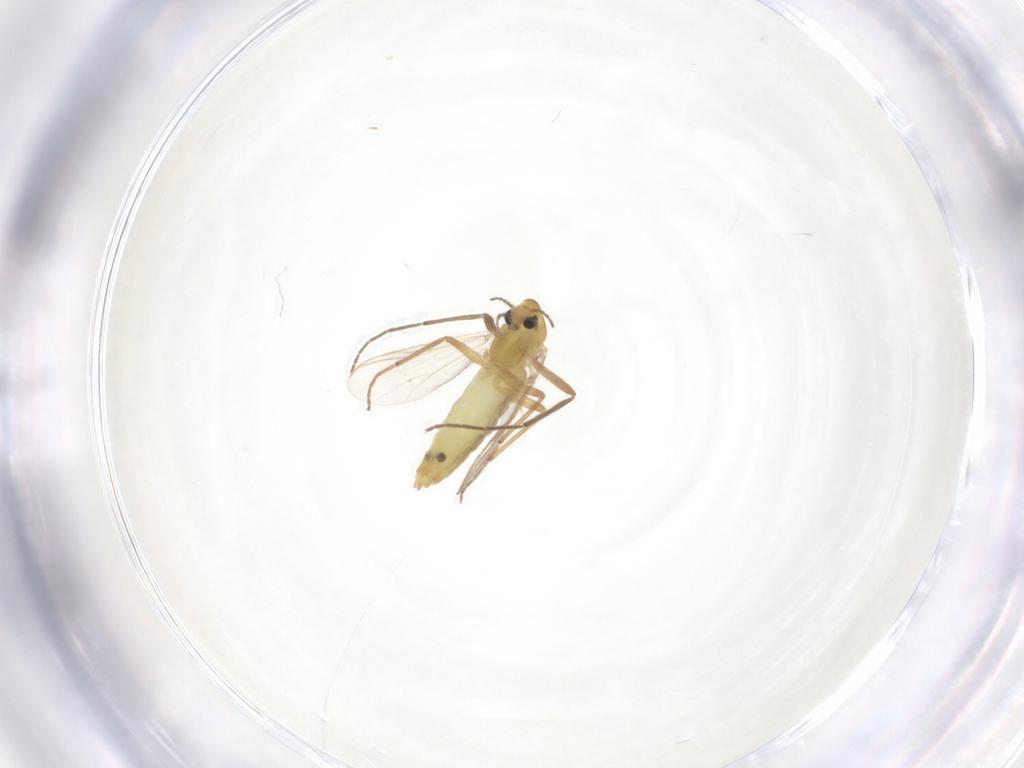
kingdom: Animalia
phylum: Arthropoda
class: Insecta
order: Diptera
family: Chironomidae
